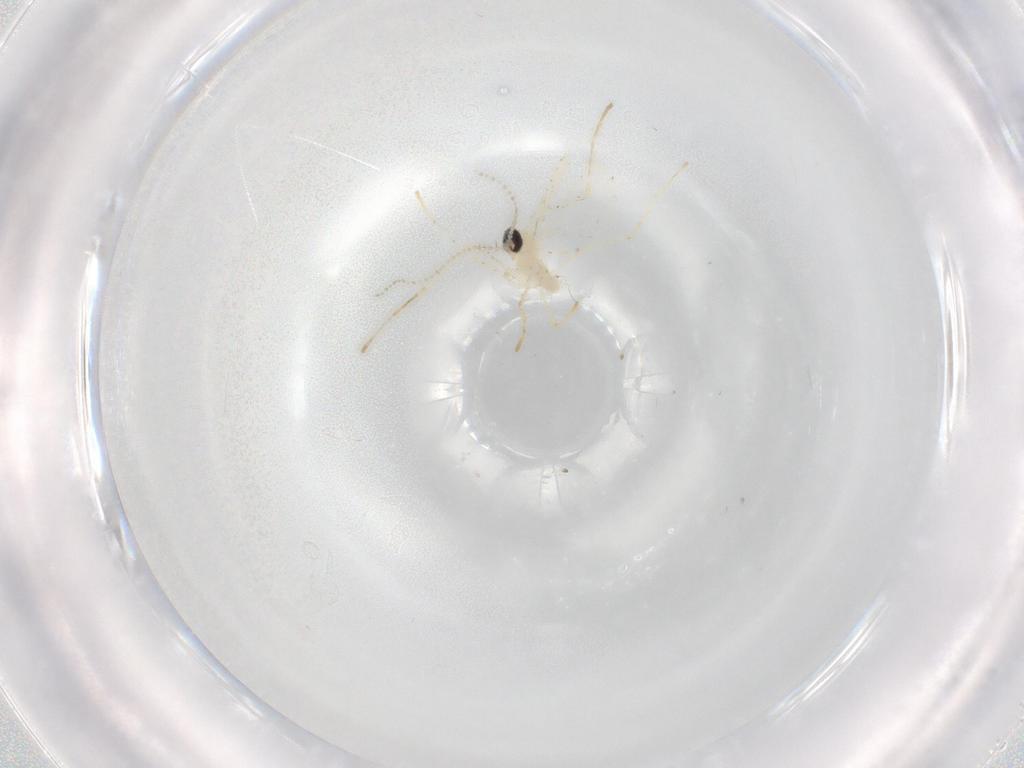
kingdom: Animalia
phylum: Arthropoda
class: Insecta
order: Diptera
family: Cecidomyiidae
